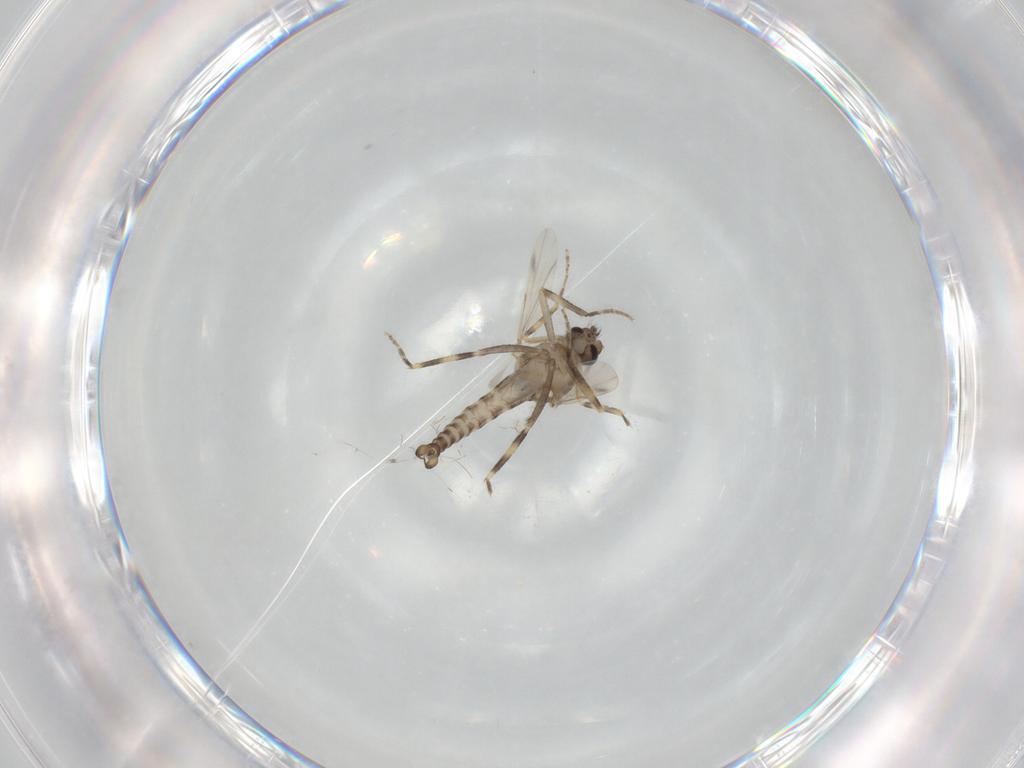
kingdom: Animalia
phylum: Arthropoda
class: Insecta
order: Diptera
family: Ceratopogonidae
